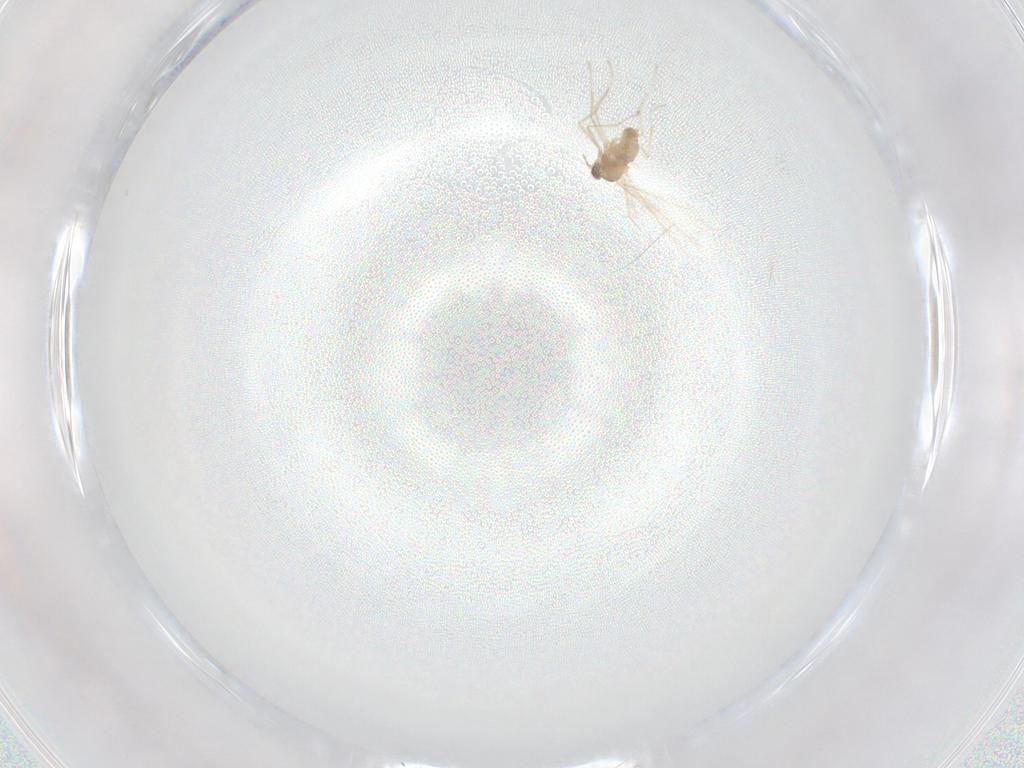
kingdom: Animalia
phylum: Arthropoda
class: Insecta
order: Diptera
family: Cecidomyiidae
